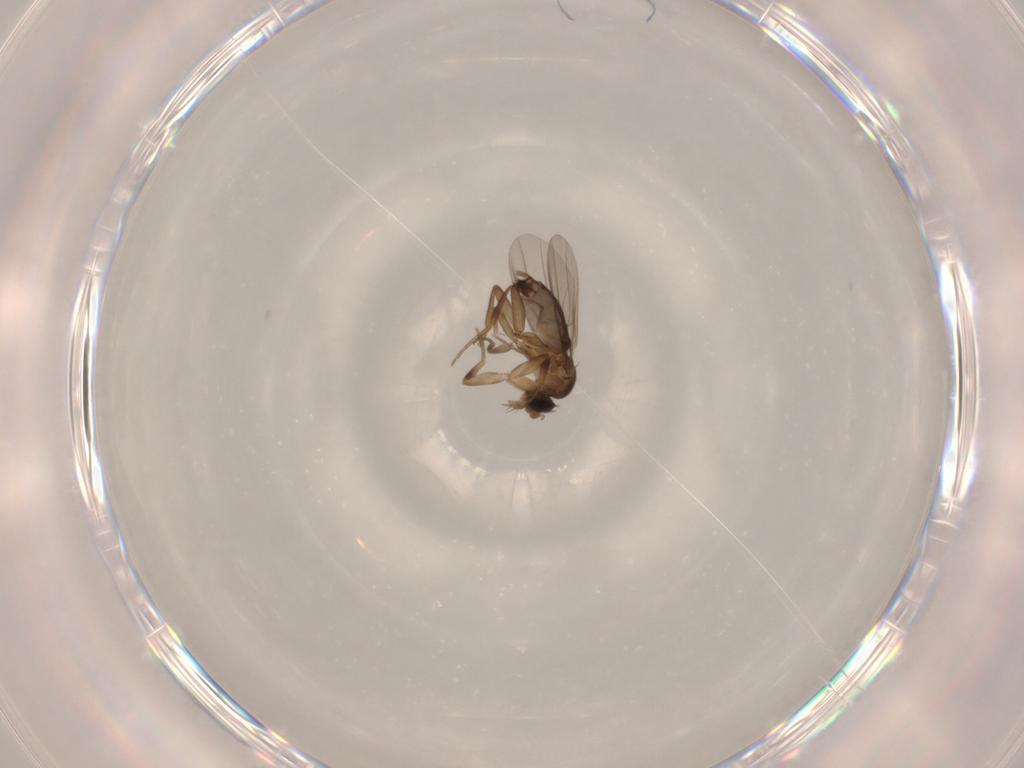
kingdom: Animalia
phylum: Arthropoda
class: Insecta
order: Diptera
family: Phoridae
